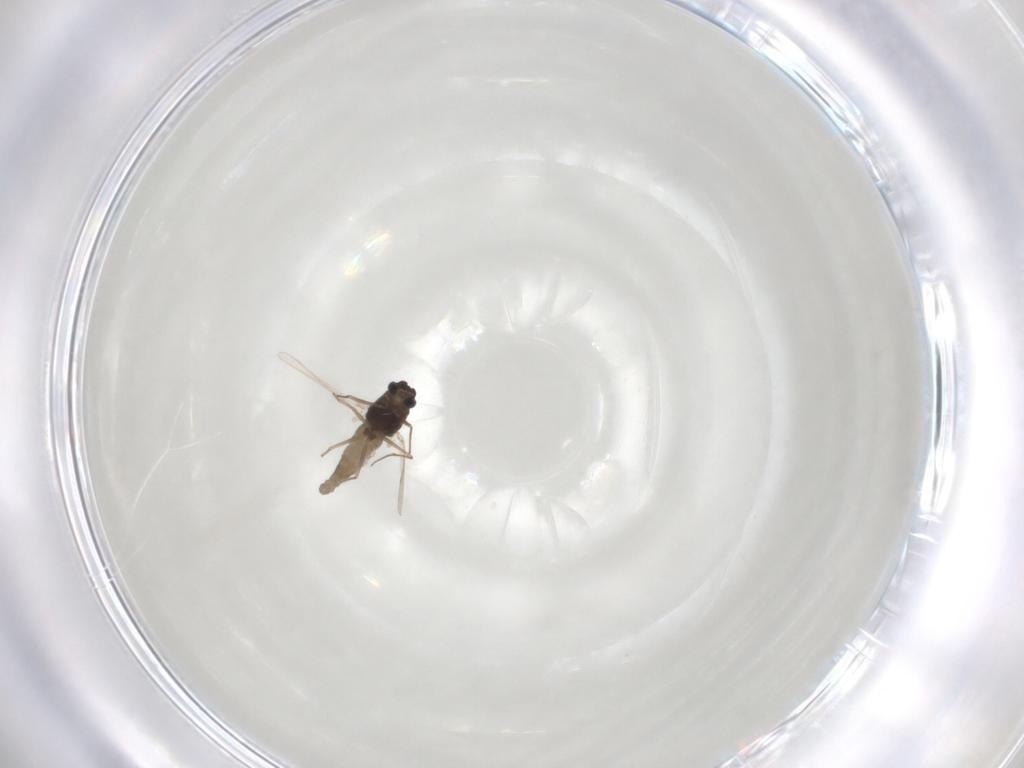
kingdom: Animalia
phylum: Arthropoda
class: Insecta
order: Diptera
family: Chironomidae
